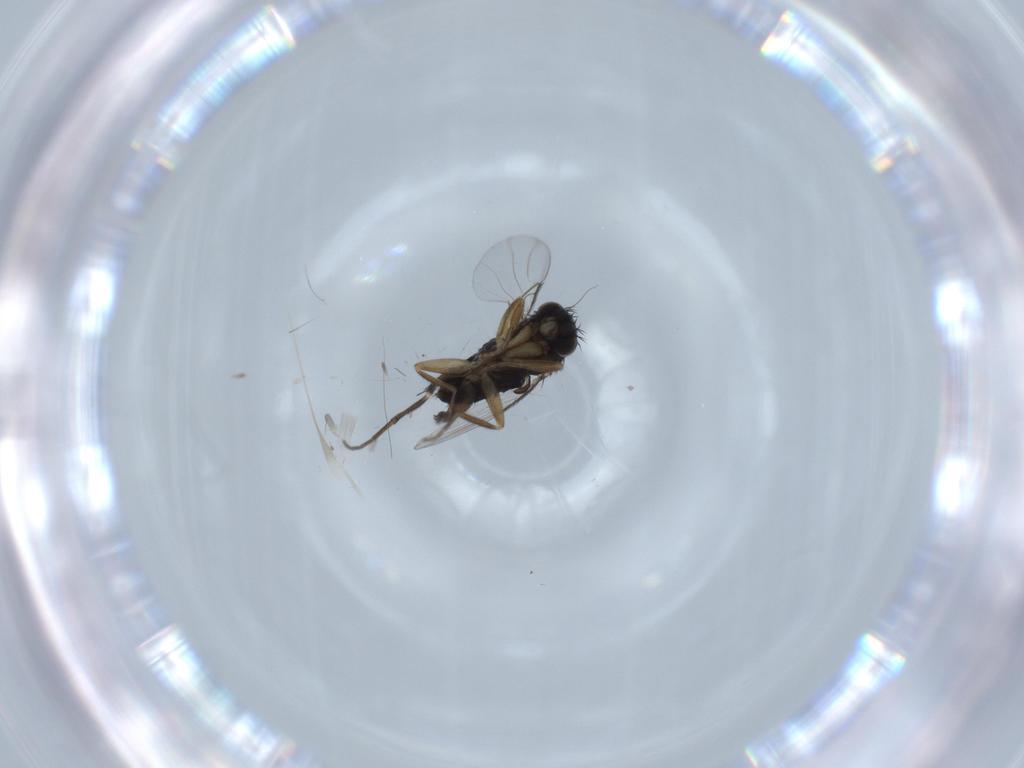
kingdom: Animalia
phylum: Arthropoda
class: Insecta
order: Diptera
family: Phoridae
